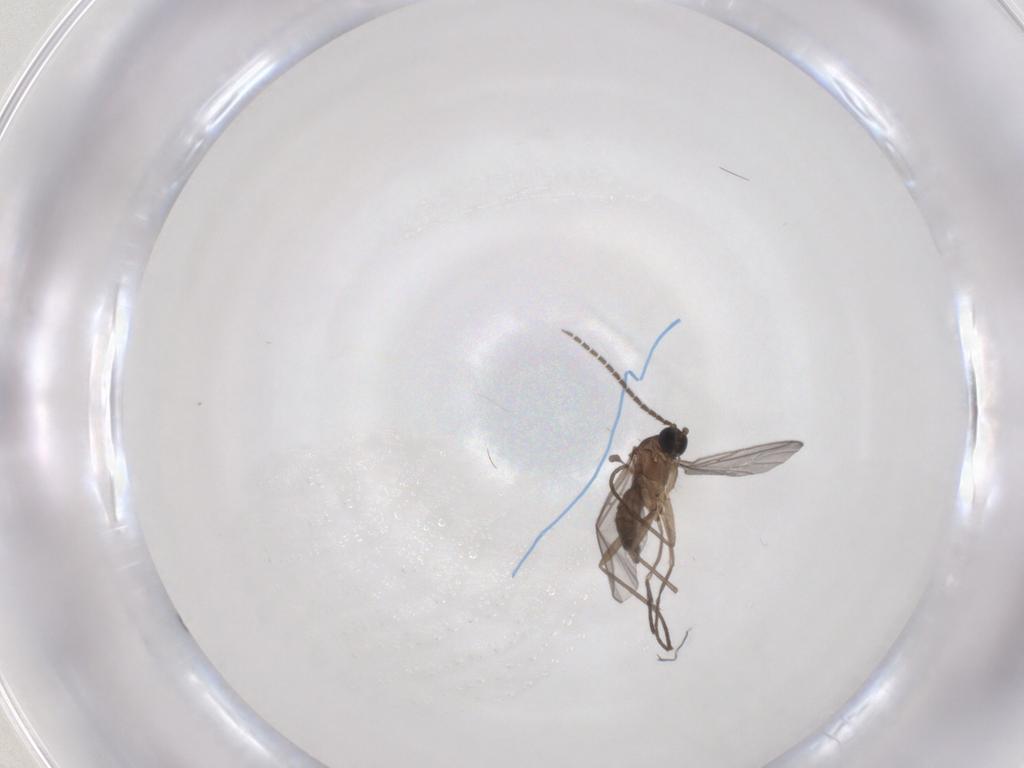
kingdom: Animalia
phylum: Arthropoda
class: Insecta
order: Diptera
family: Sciaridae
